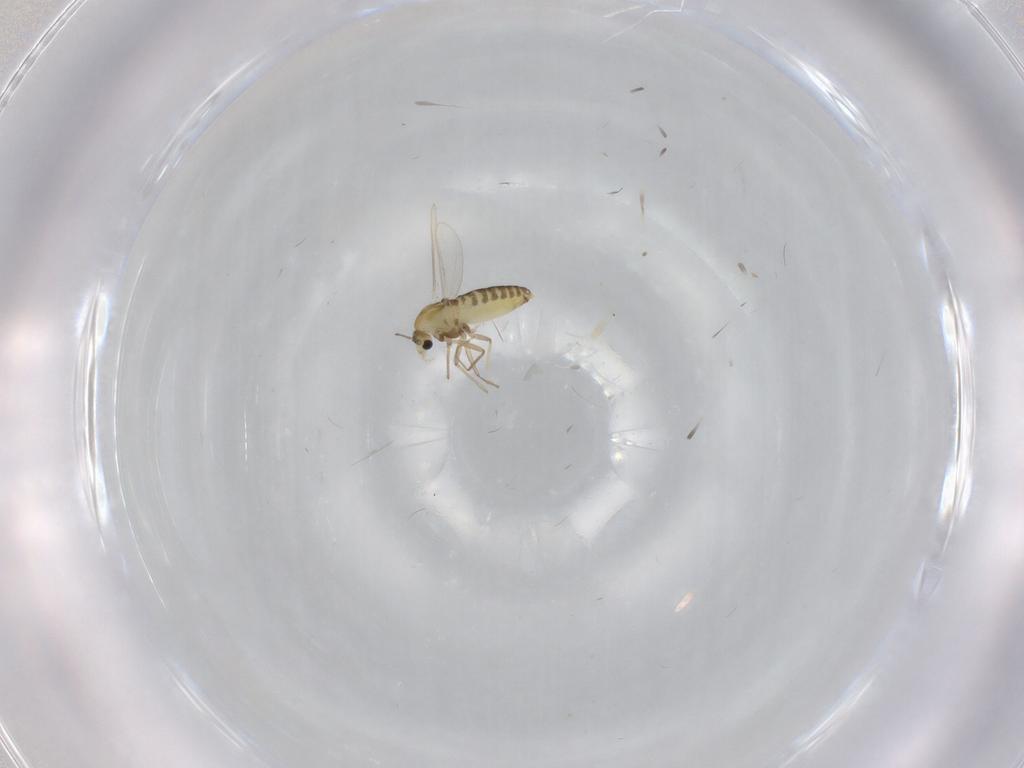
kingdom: Animalia
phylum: Arthropoda
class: Insecta
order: Diptera
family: Chironomidae
